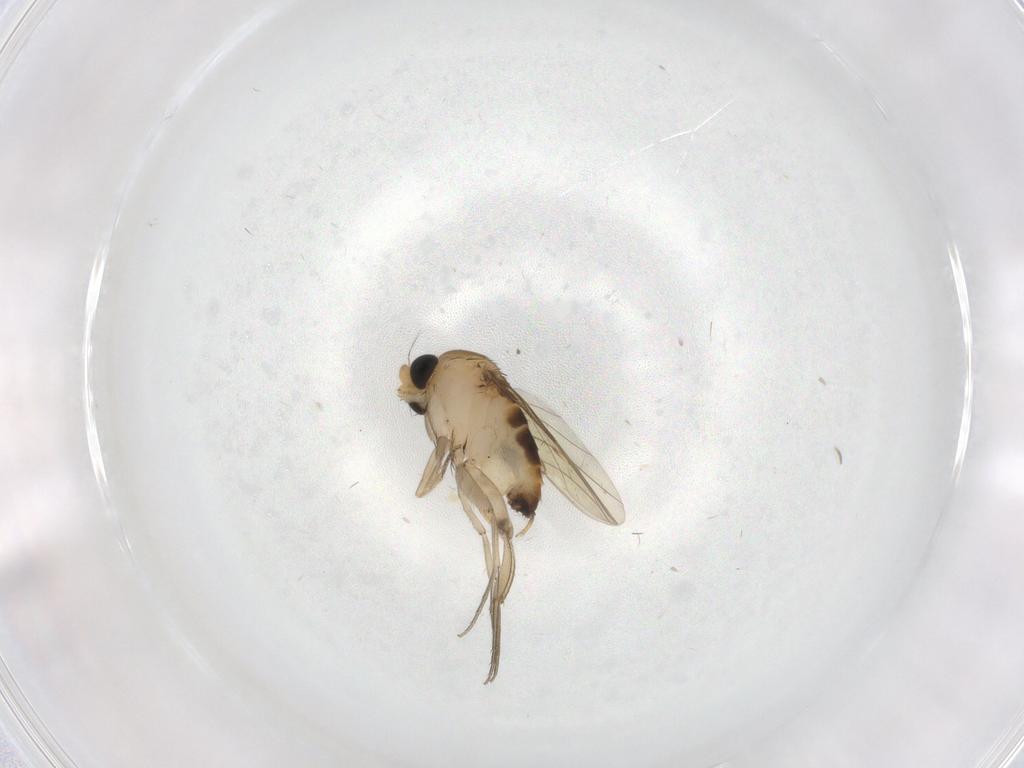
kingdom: Animalia
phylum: Arthropoda
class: Insecta
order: Diptera
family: Phoridae
